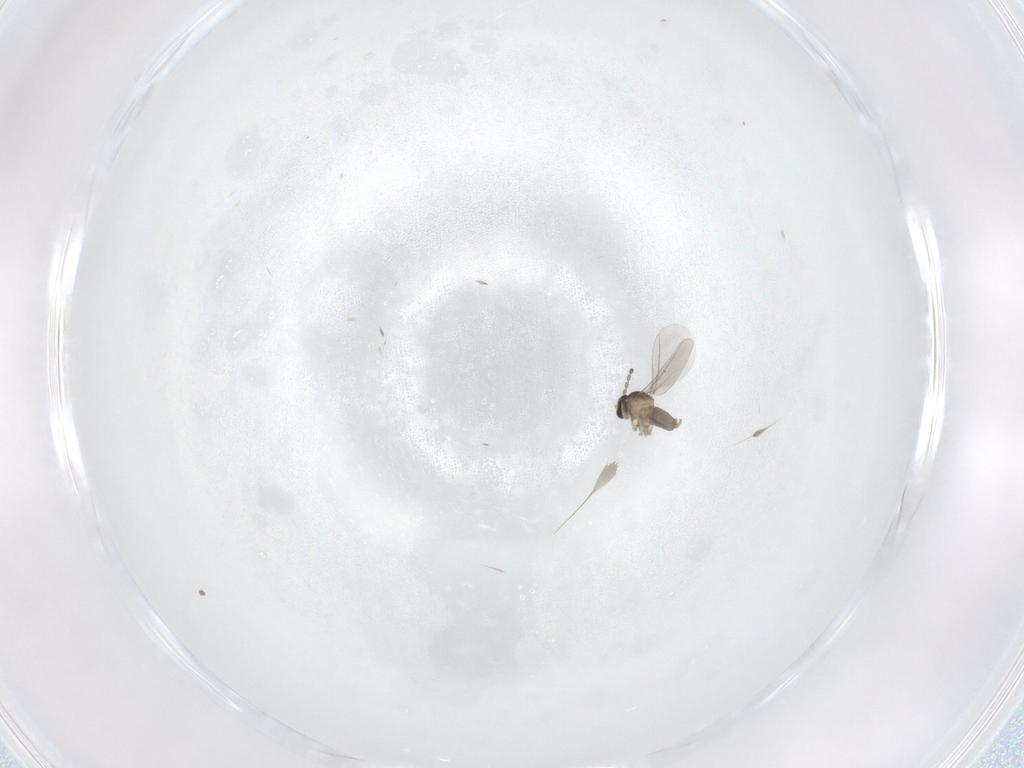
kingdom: Animalia
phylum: Arthropoda
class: Insecta
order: Diptera
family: Cecidomyiidae
